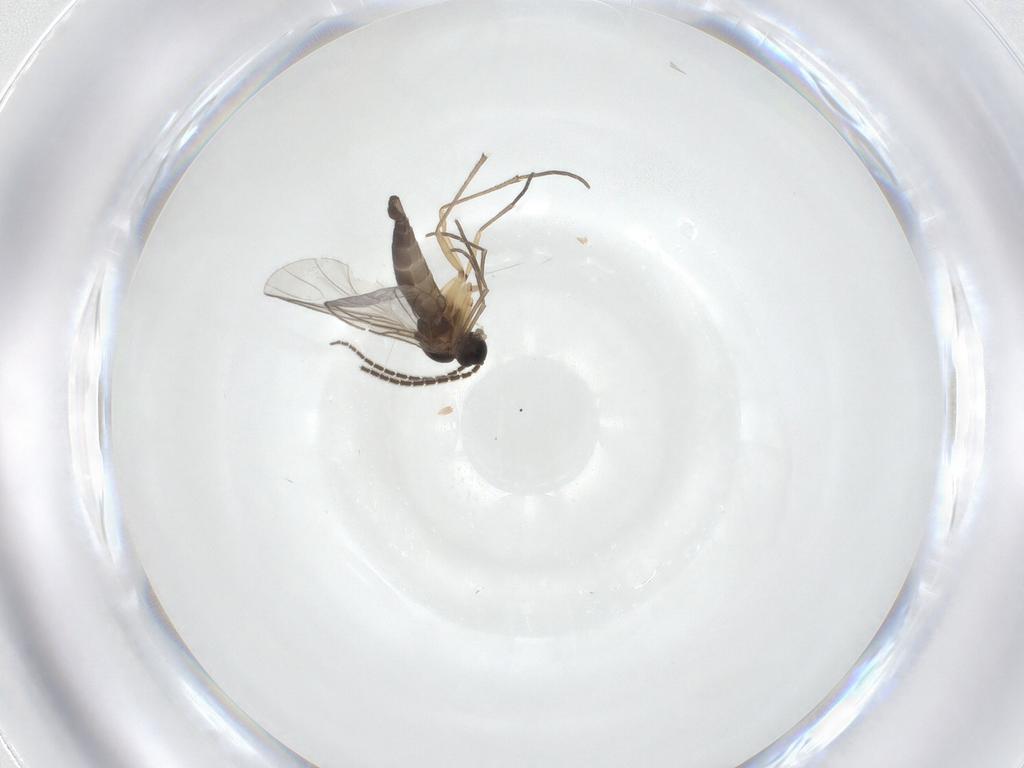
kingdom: Animalia
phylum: Arthropoda
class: Insecta
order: Diptera
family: Sciaridae
